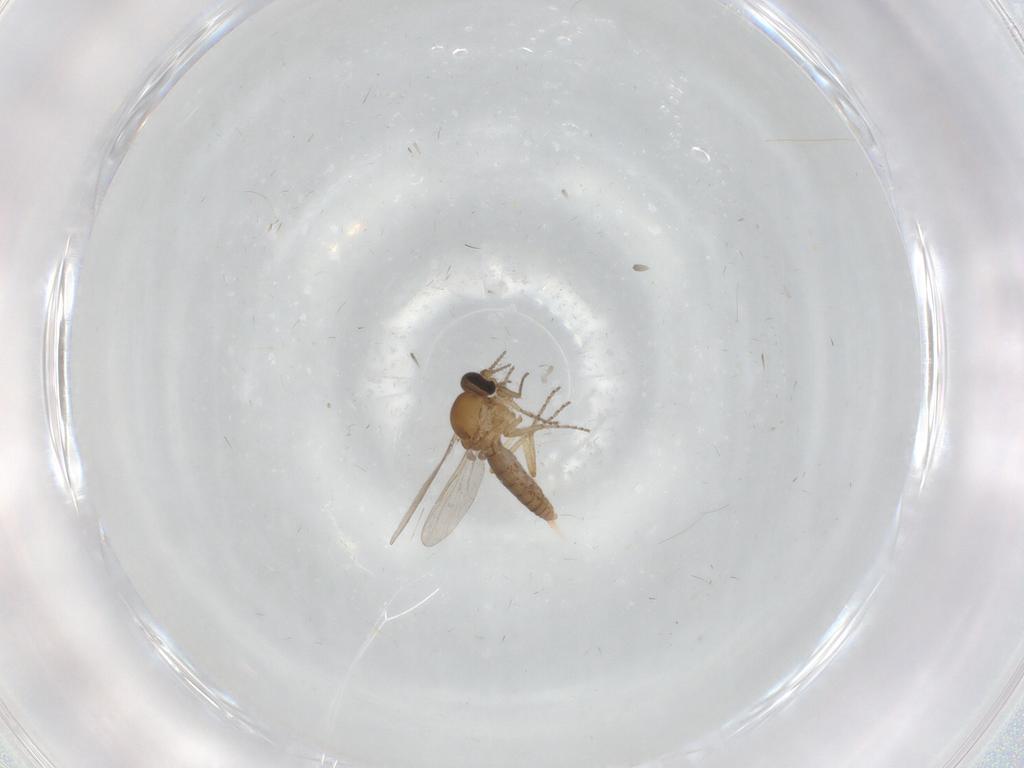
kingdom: Animalia
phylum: Arthropoda
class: Insecta
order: Diptera
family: Ceratopogonidae
